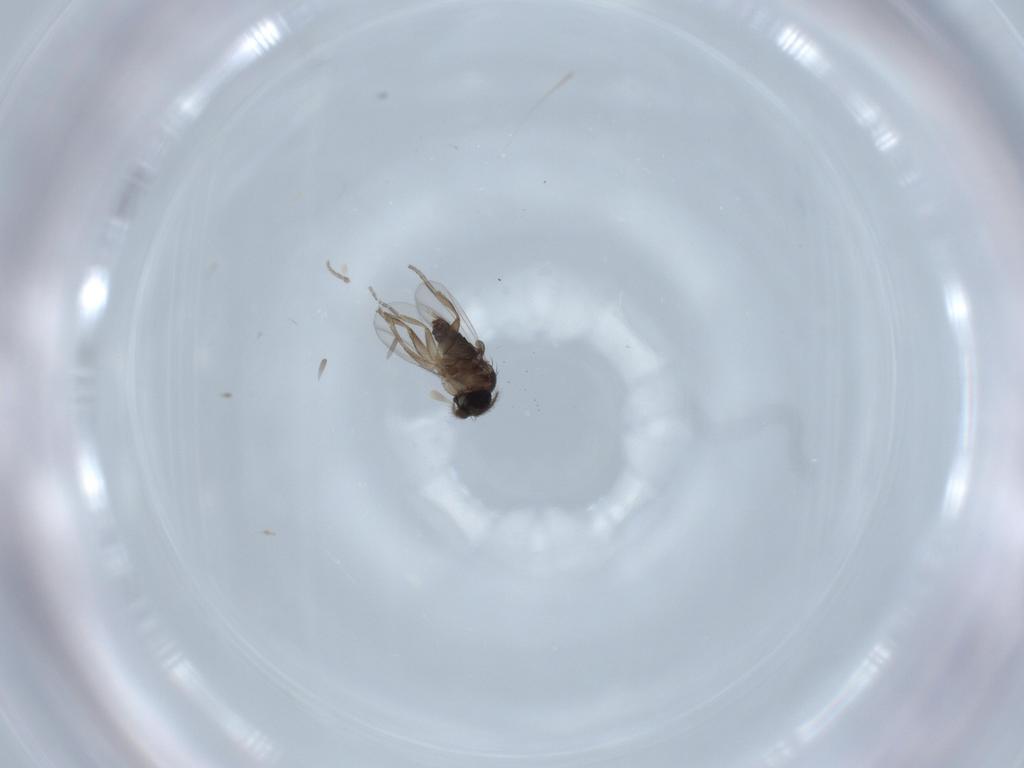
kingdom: Animalia
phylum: Arthropoda
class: Insecta
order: Diptera
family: Phoridae
